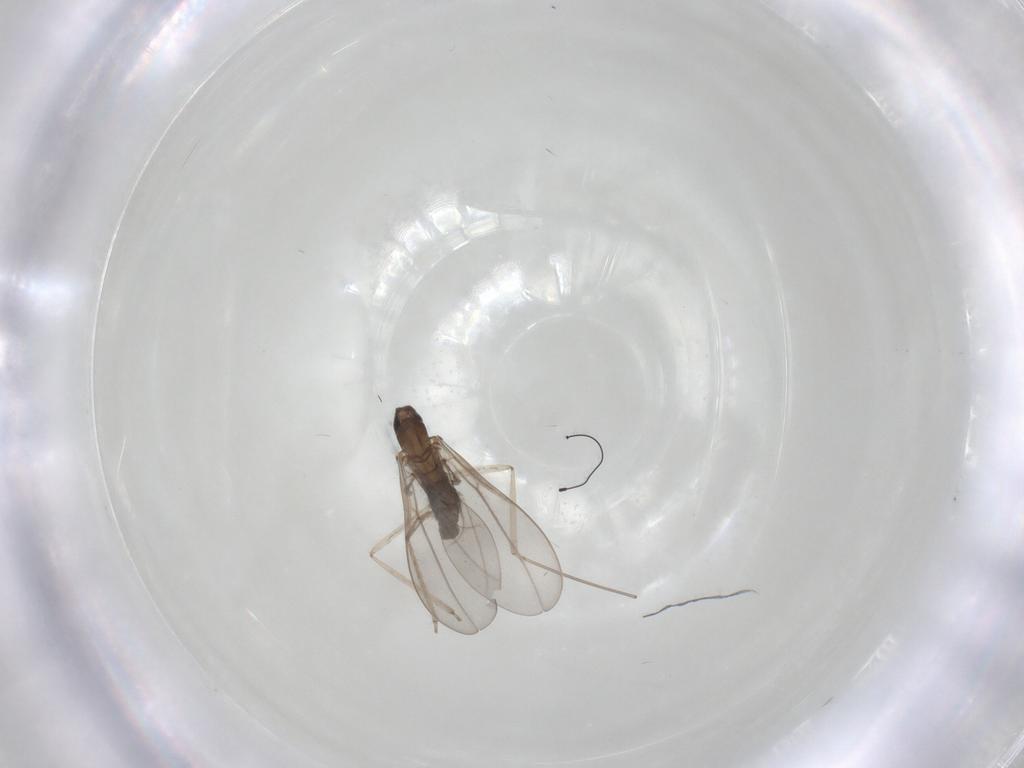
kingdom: Animalia
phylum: Arthropoda
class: Insecta
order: Diptera
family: Cecidomyiidae
